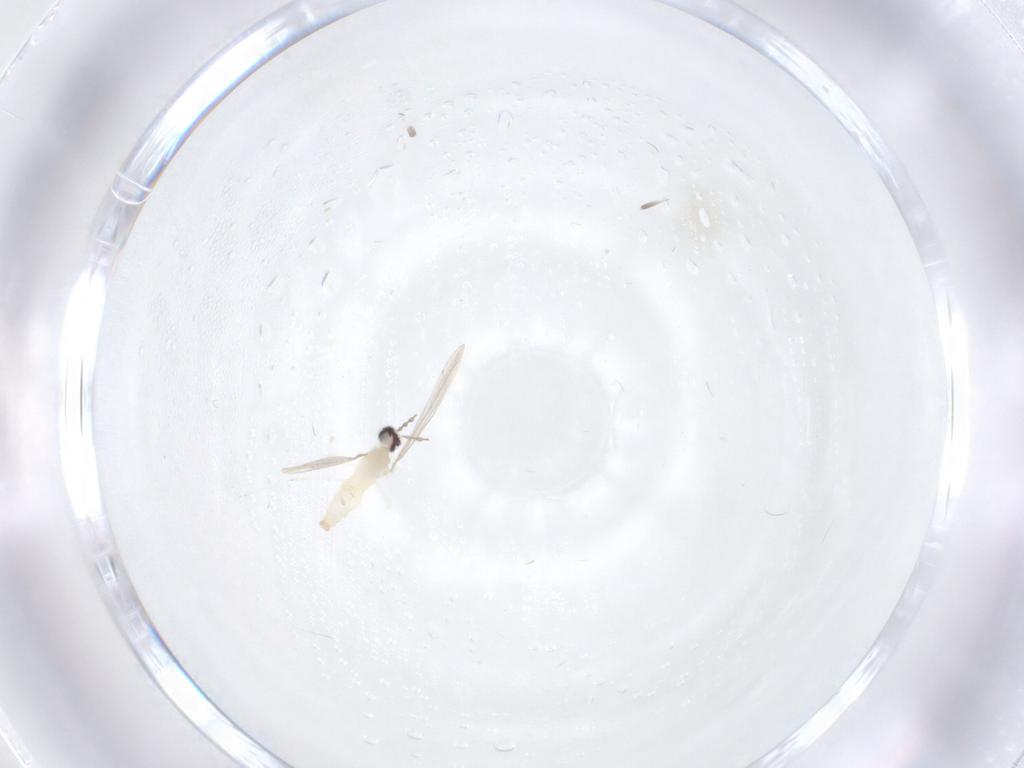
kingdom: Animalia
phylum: Arthropoda
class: Insecta
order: Diptera
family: Cecidomyiidae
